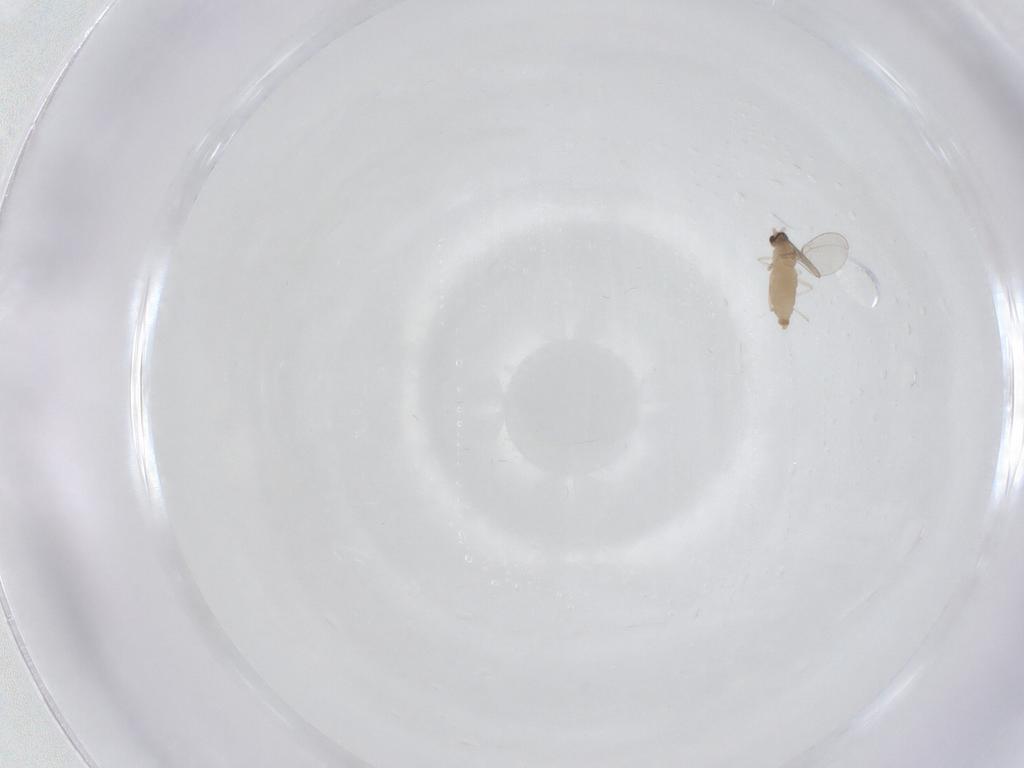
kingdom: Animalia
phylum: Arthropoda
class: Insecta
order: Diptera
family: Cecidomyiidae
